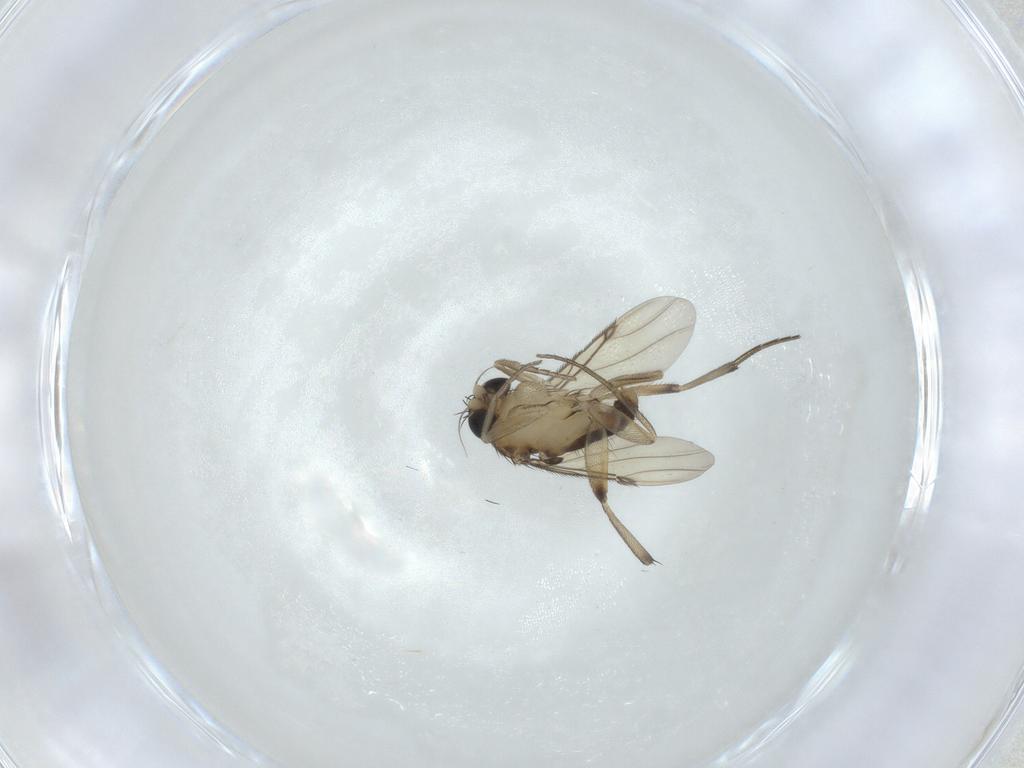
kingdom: Animalia
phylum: Arthropoda
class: Insecta
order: Diptera
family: Phoridae
